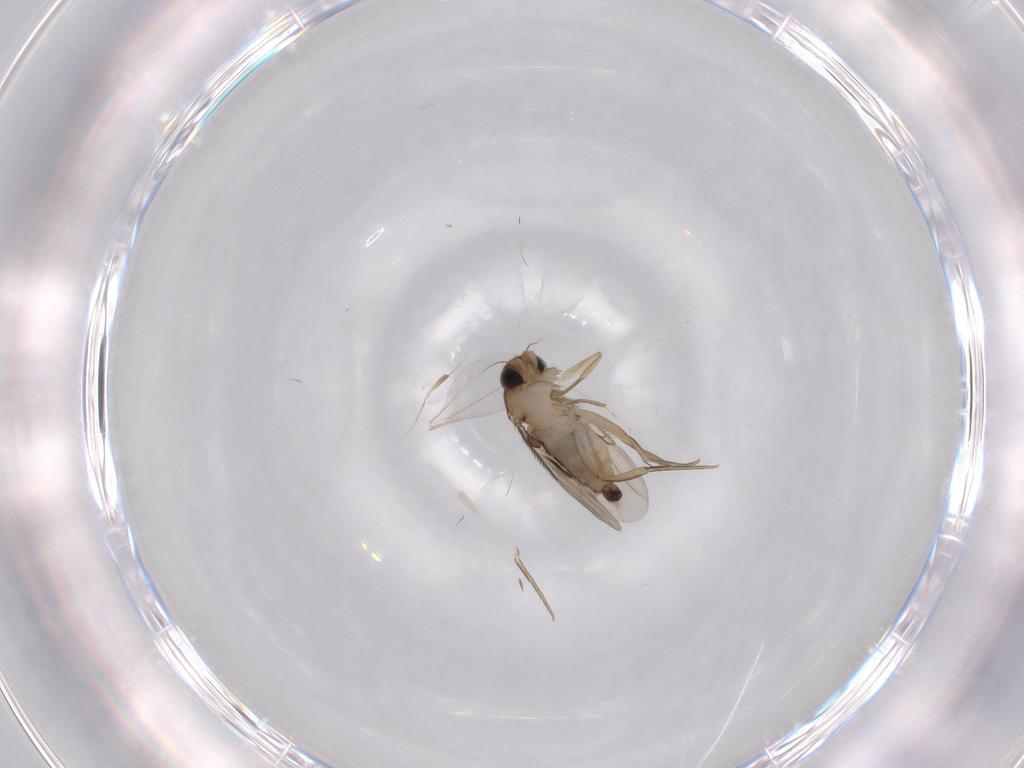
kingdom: Animalia
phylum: Arthropoda
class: Insecta
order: Diptera
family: Phoridae
